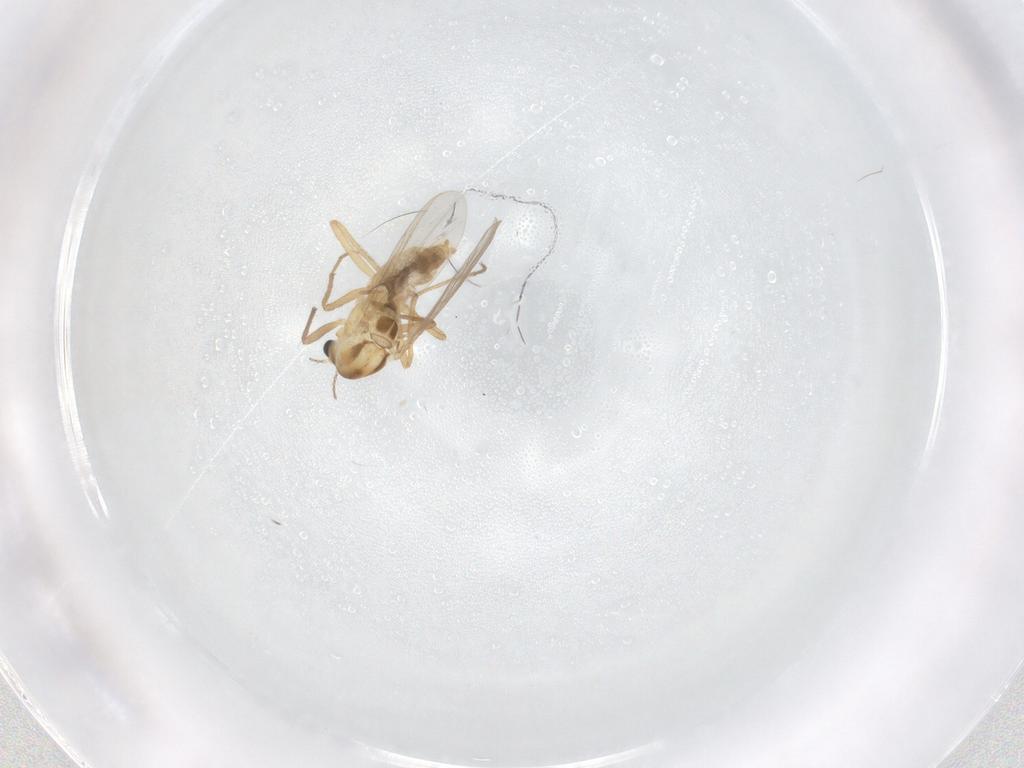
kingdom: Animalia
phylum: Arthropoda
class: Insecta
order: Diptera
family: Chironomidae
